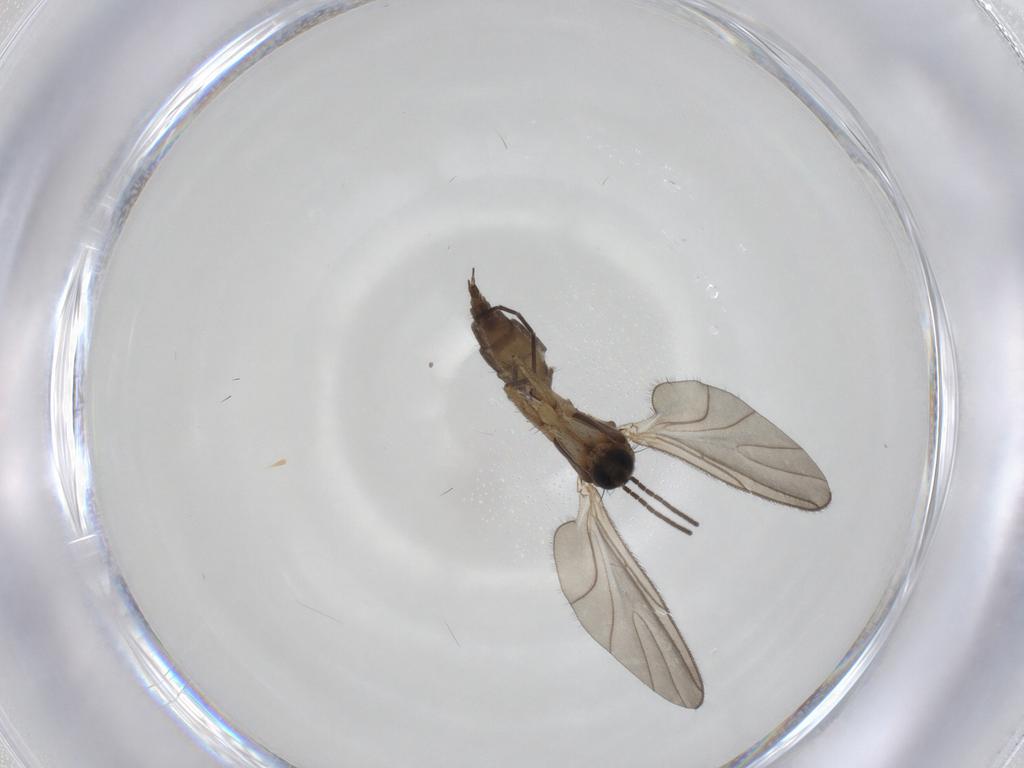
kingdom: Animalia
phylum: Arthropoda
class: Insecta
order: Diptera
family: Sciaridae
